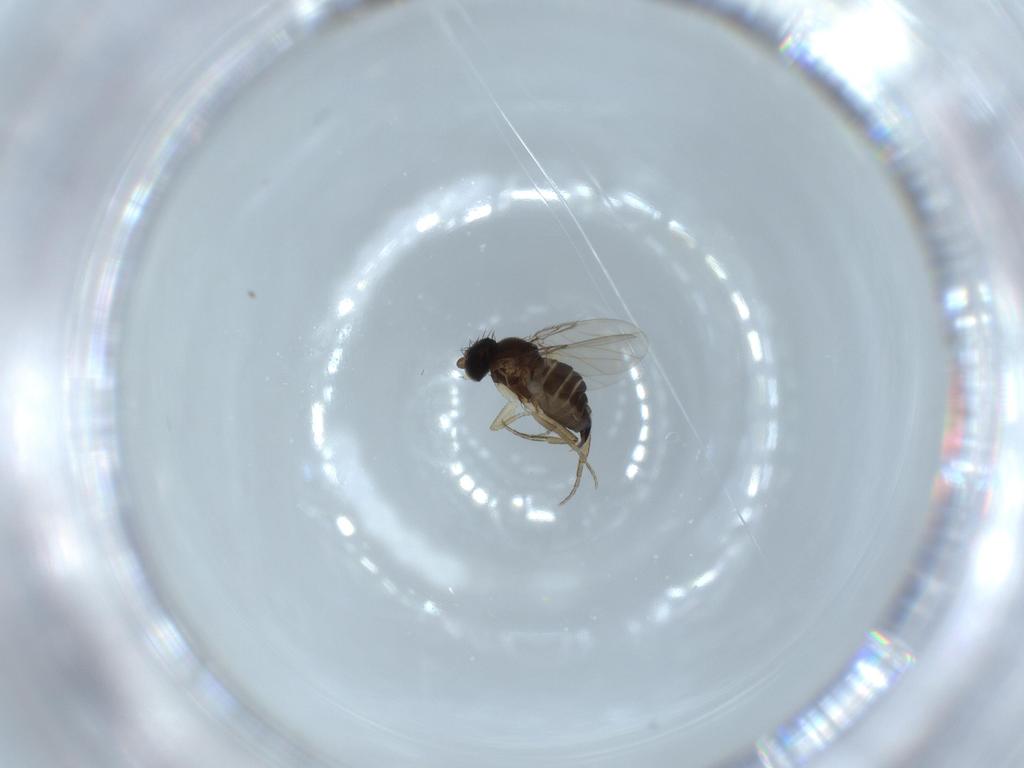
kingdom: Animalia
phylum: Arthropoda
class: Insecta
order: Diptera
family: Phoridae
